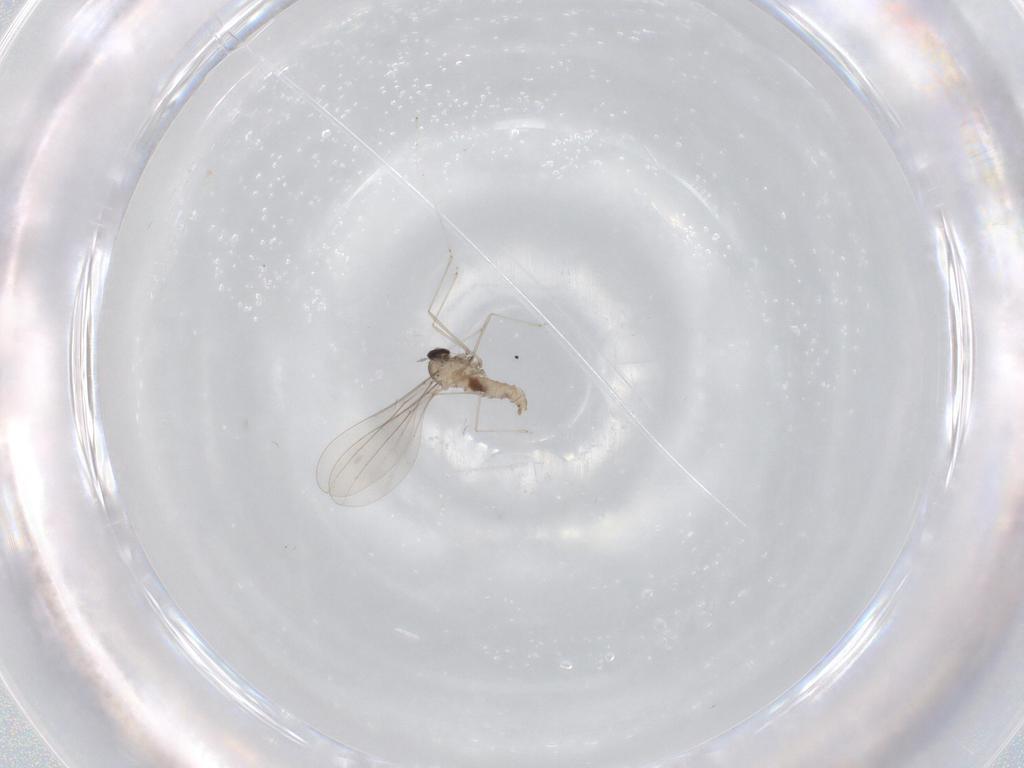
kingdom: Animalia
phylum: Arthropoda
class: Insecta
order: Diptera
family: Cecidomyiidae
